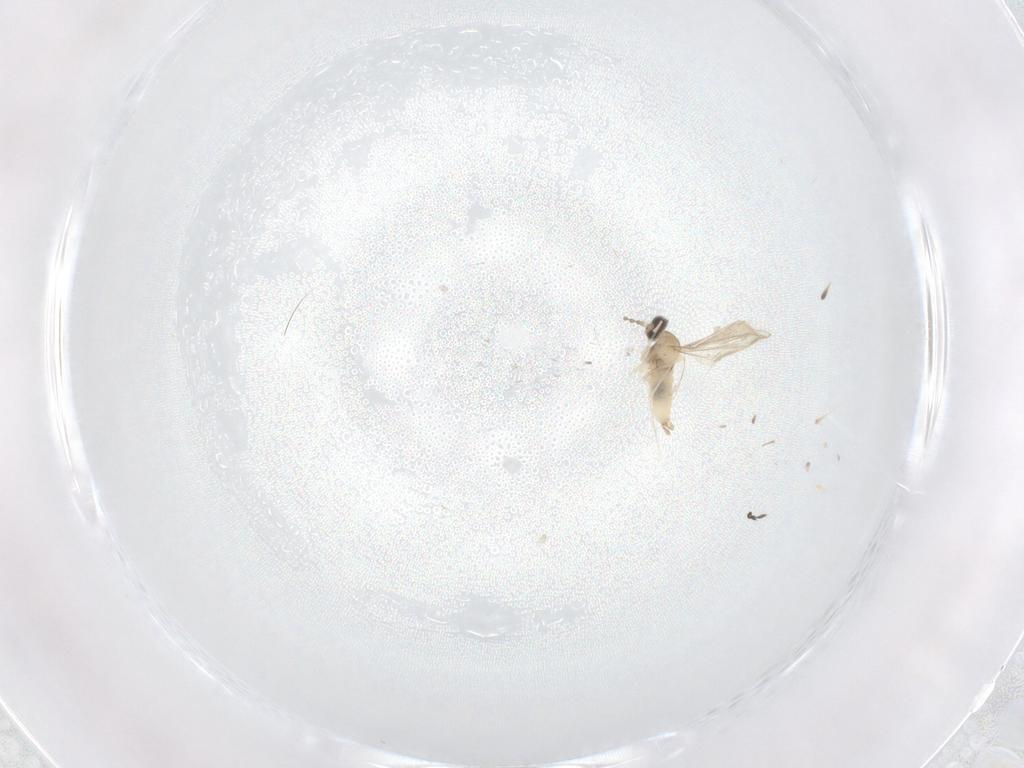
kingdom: Animalia
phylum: Arthropoda
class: Insecta
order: Diptera
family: Cecidomyiidae
